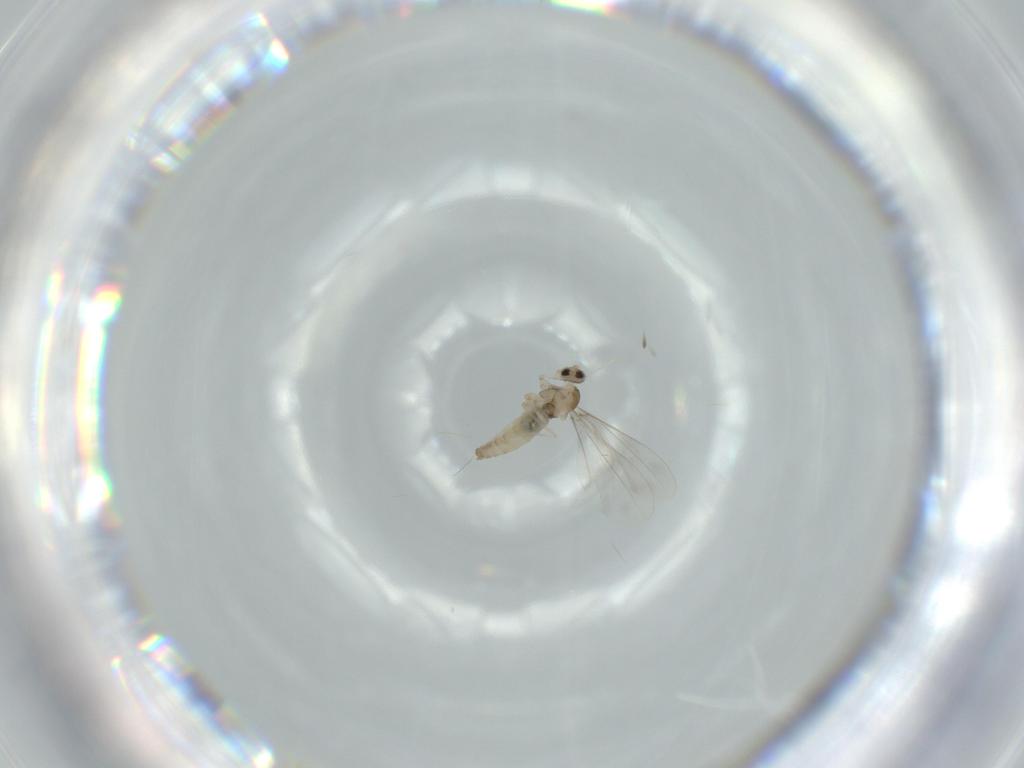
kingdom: Animalia
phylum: Arthropoda
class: Insecta
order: Diptera
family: Cecidomyiidae
